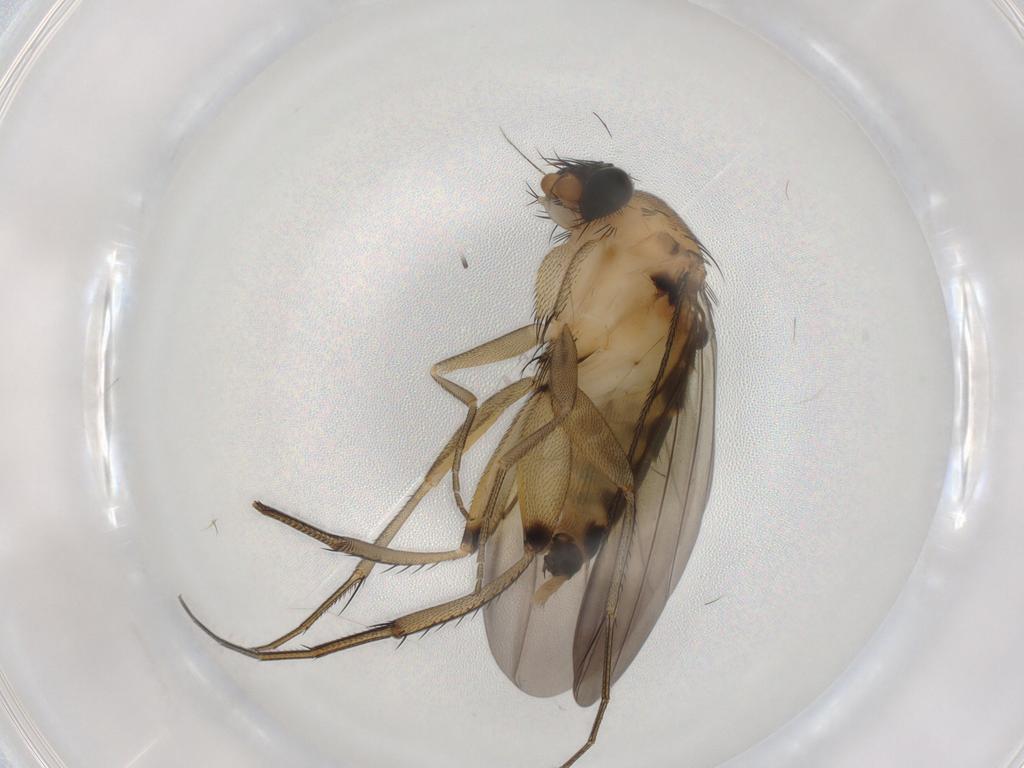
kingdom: Animalia
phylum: Arthropoda
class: Insecta
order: Diptera
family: Phoridae
